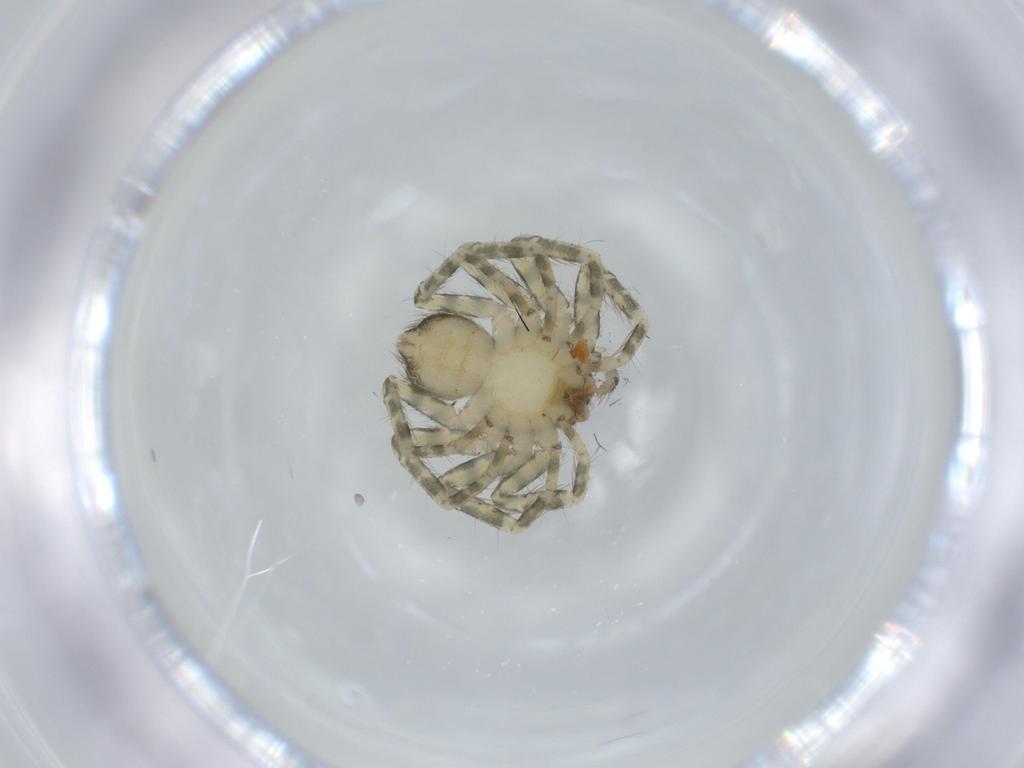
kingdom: Animalia
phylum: Arthropoda
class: Arachnida
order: Araneae
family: Selenopidae
